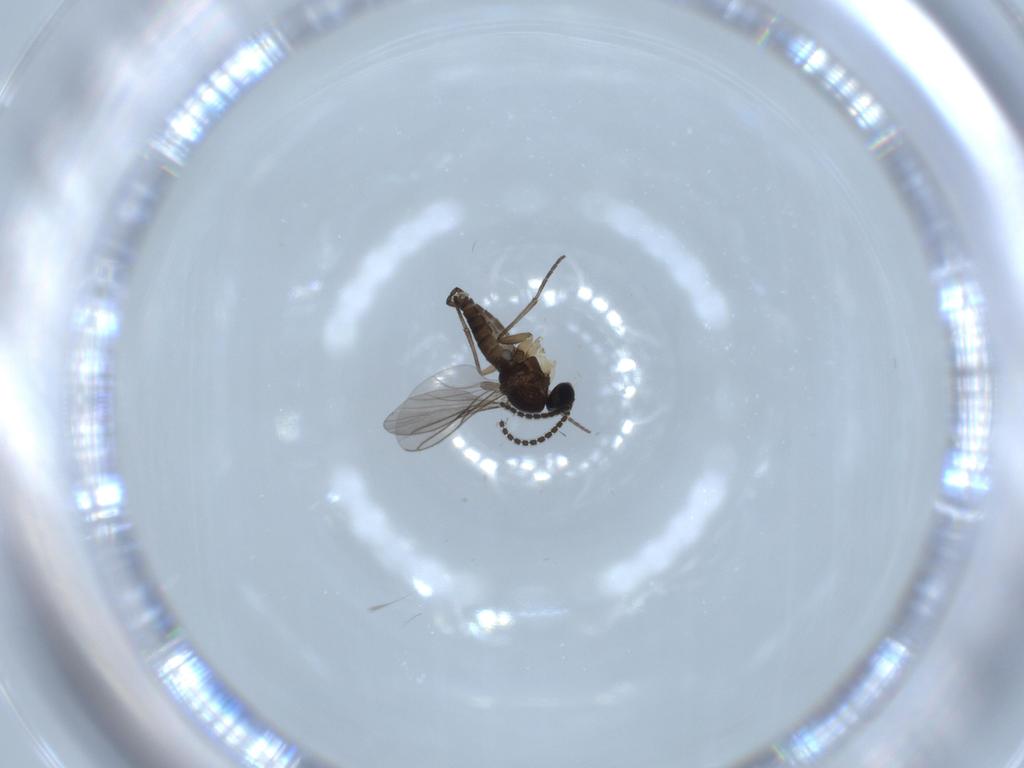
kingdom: Animalia
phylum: Arthropoda
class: Insecta
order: Diptera
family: Sciaridae
